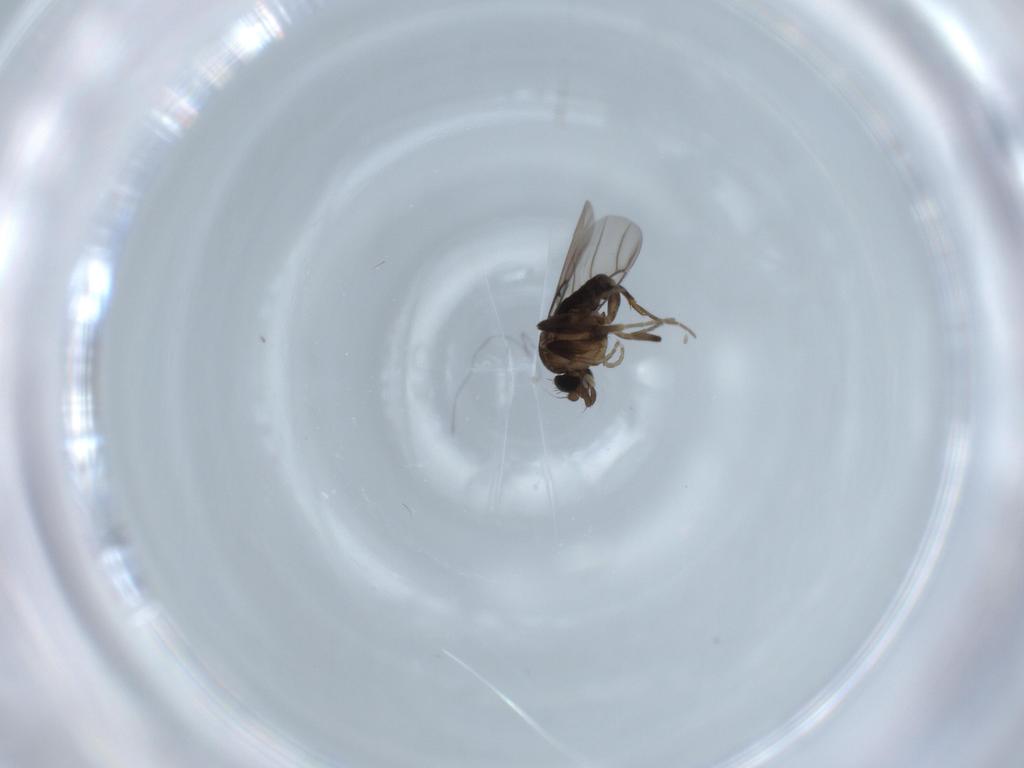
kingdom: Animalia
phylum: Arthropoda
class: Insecta
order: Diptera
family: Phoridae
